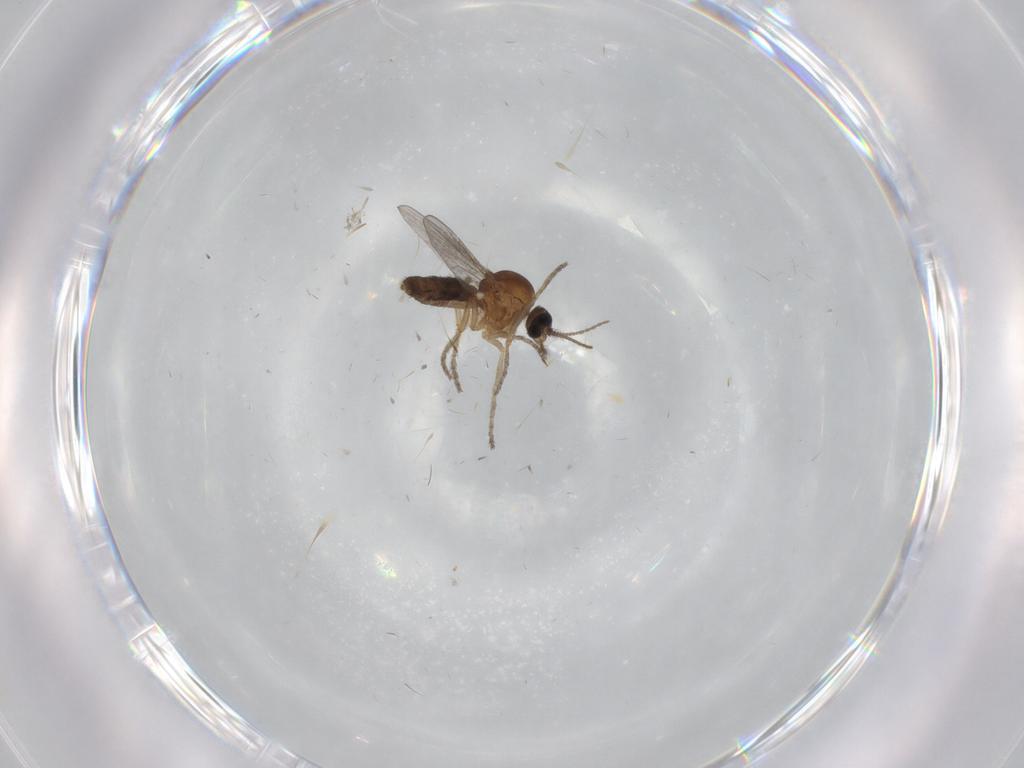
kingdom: Animalia
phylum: Arthropoda
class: Insecta
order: Diptera
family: Ceratopogonidae
